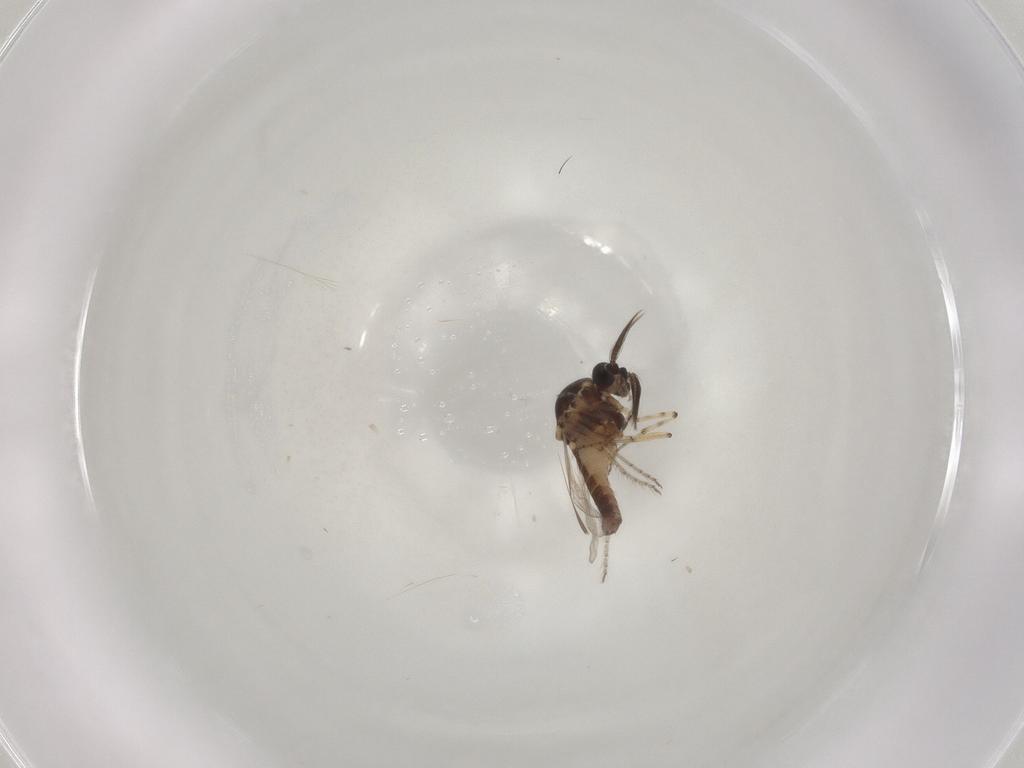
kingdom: Animalia
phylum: Arthropoda
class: Insecta
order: Diptera
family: Ceratopogonidae
